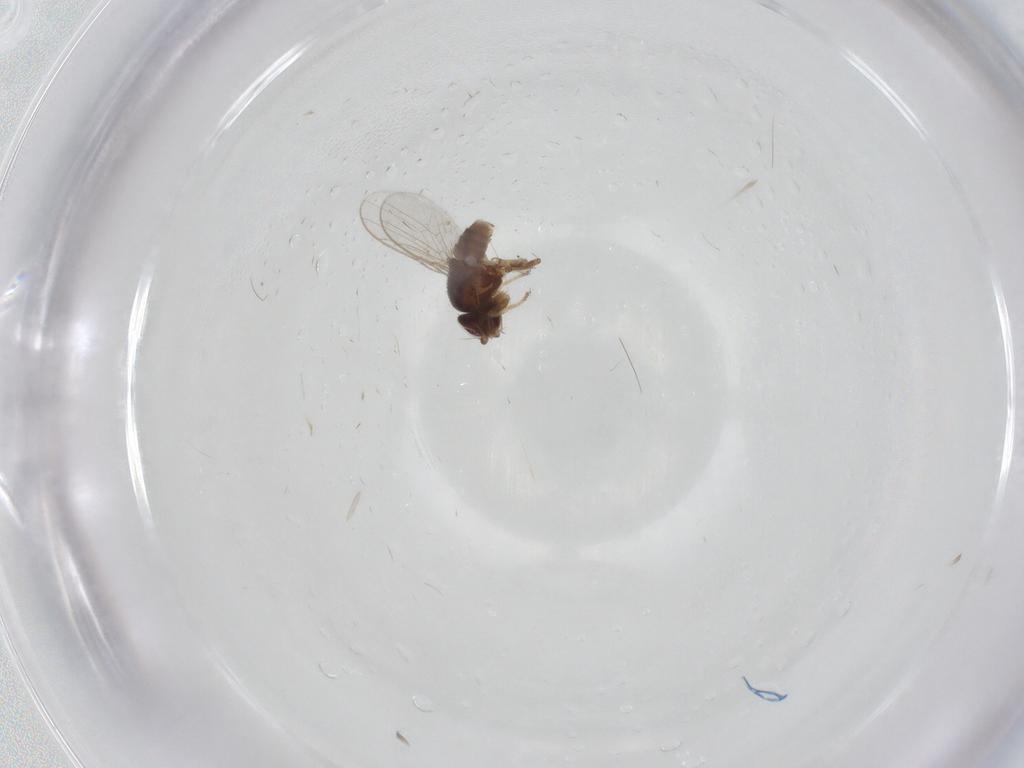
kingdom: Animalia
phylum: Arthropoda
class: Insecta
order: Diptera
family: Chloropidae
